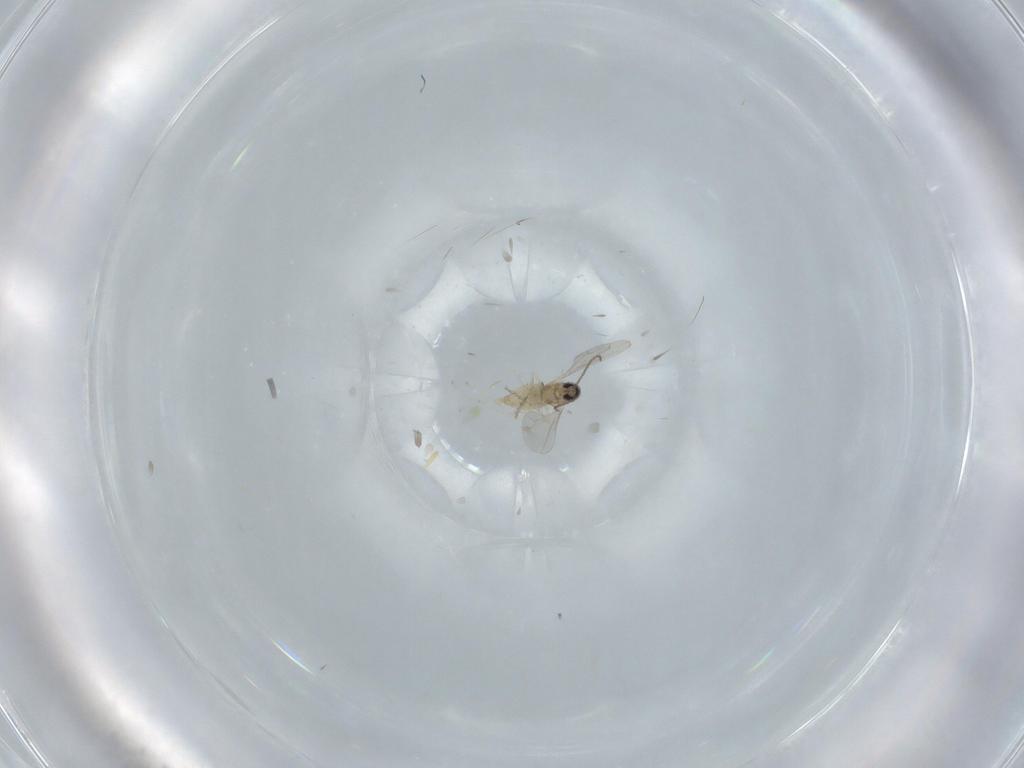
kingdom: Animalia
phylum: Arthropoda
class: Insecta
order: Diptera
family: Cecidomyiidae
